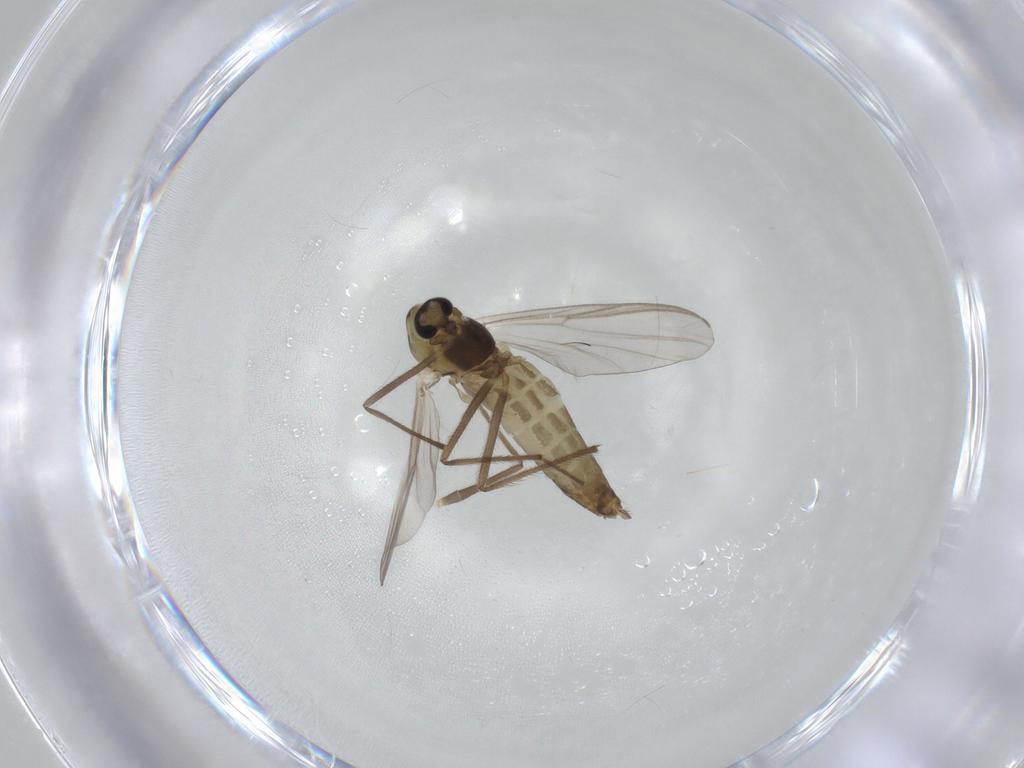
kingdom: Animalia
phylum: Arthropoda
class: Insecta
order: Diptera
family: Chironomidae
